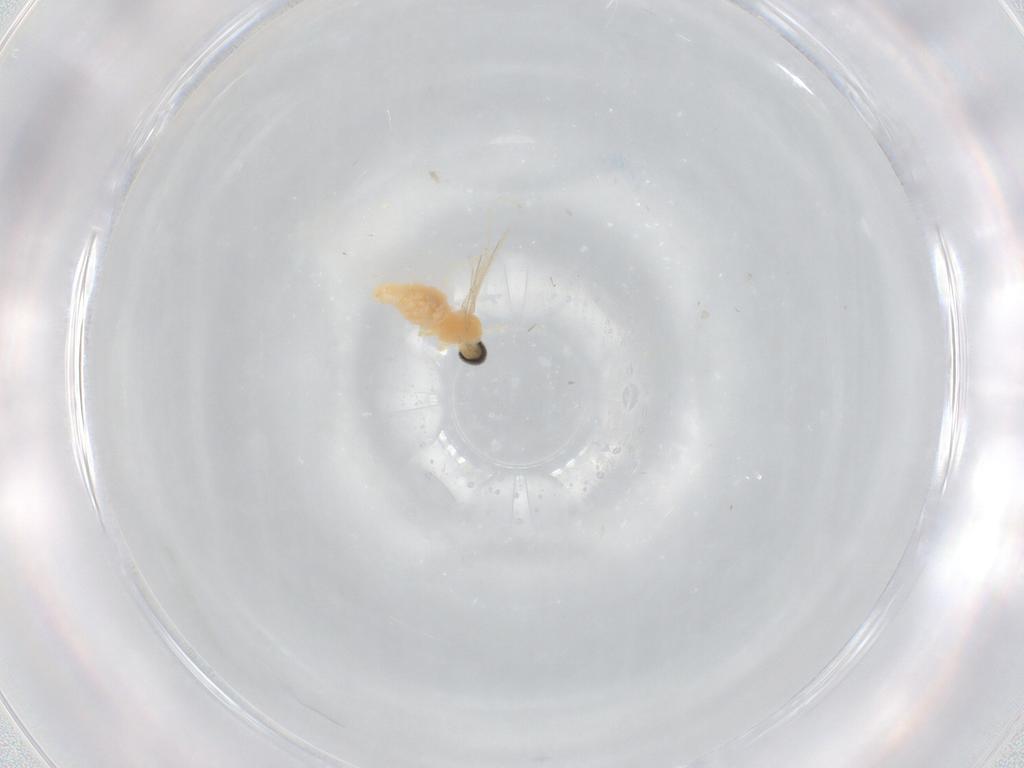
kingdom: Animalia
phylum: Arthropoda
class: Insecta
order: Diptera
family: Cecidomyiidae
